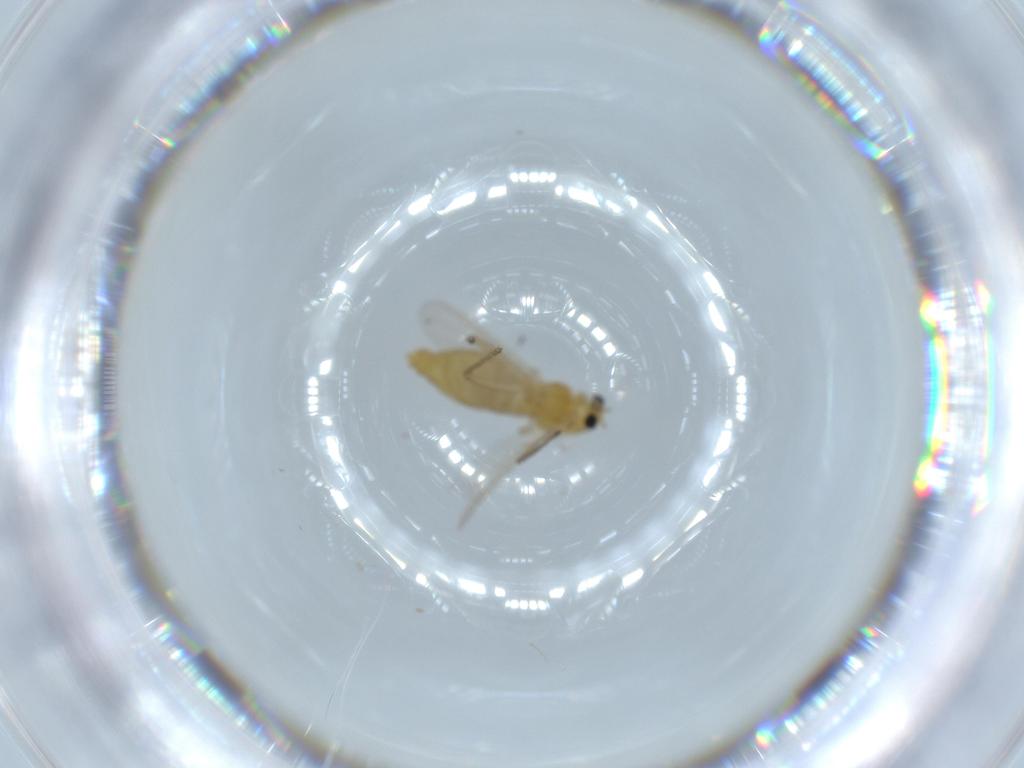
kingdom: Animalia
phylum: Arthropoda
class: Insecta
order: Diptera
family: Chironomidae
